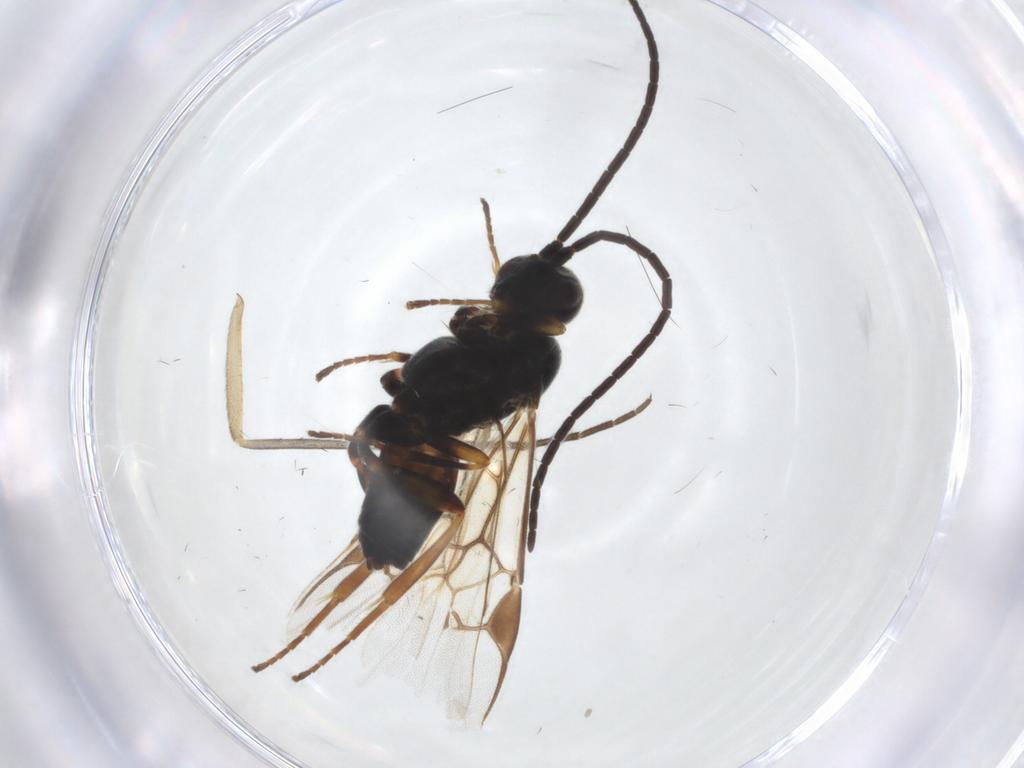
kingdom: Animalia
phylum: Arthropoda
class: Insecta
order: Hymenoptera
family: Braconidae
